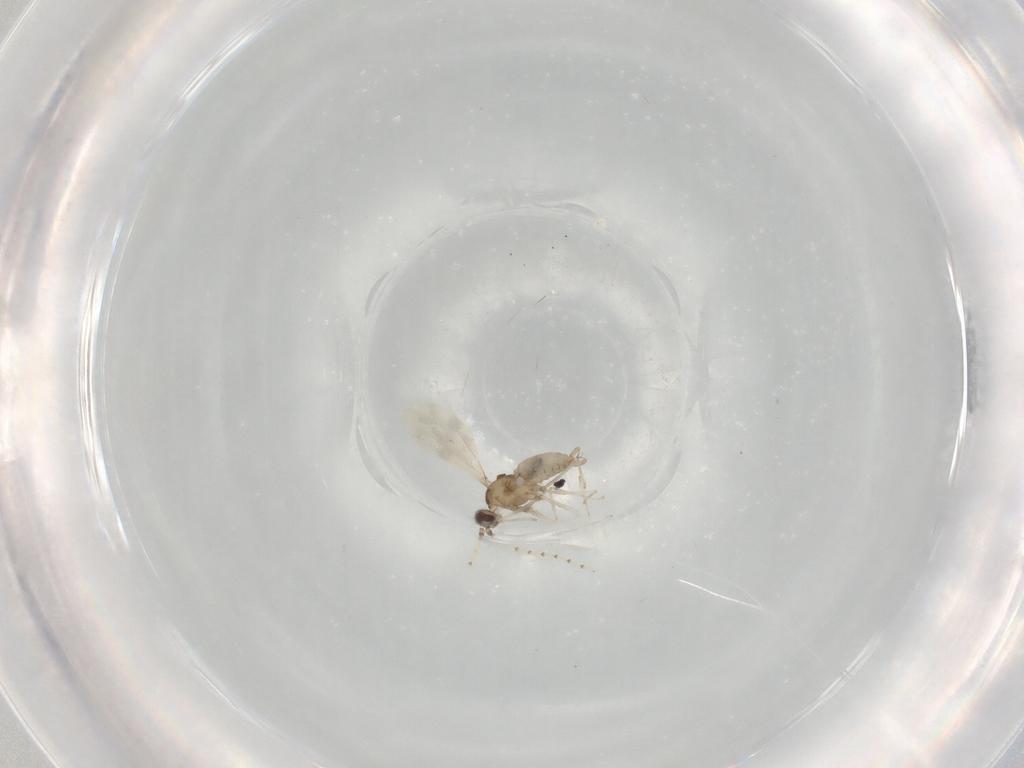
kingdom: Animalia
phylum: Arthropoda
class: Insecta
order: Diptera
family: Cecidomyiidae
